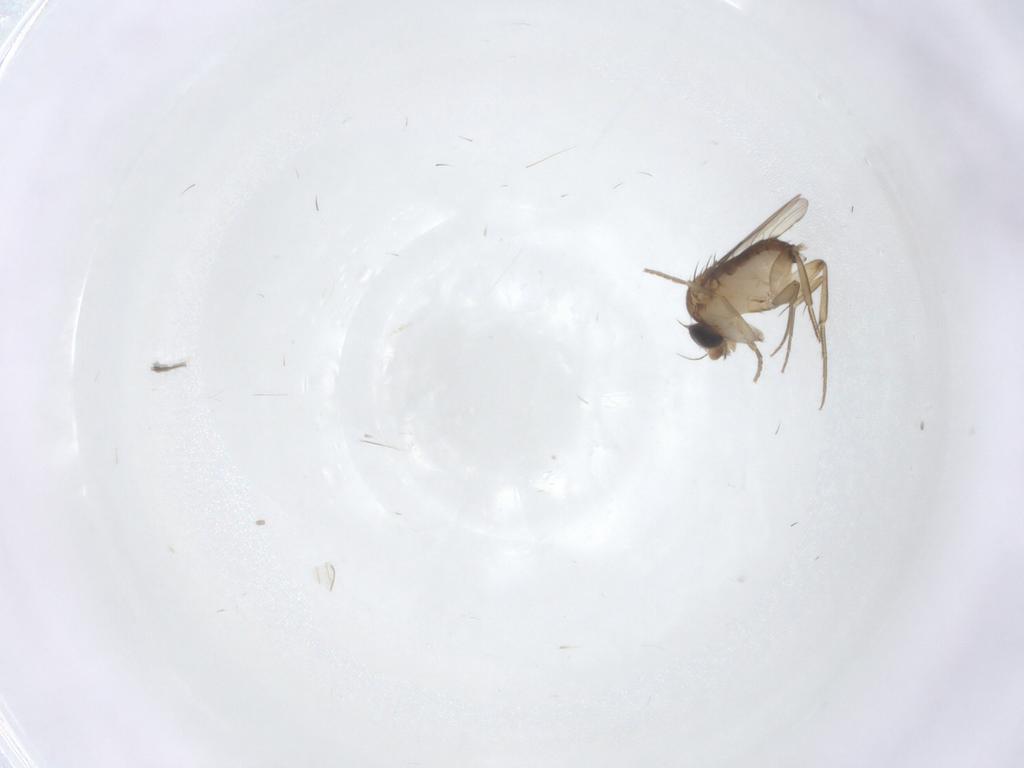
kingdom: Animalia
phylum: Arthropoda
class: Insecta
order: Diptera
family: Phoridae
